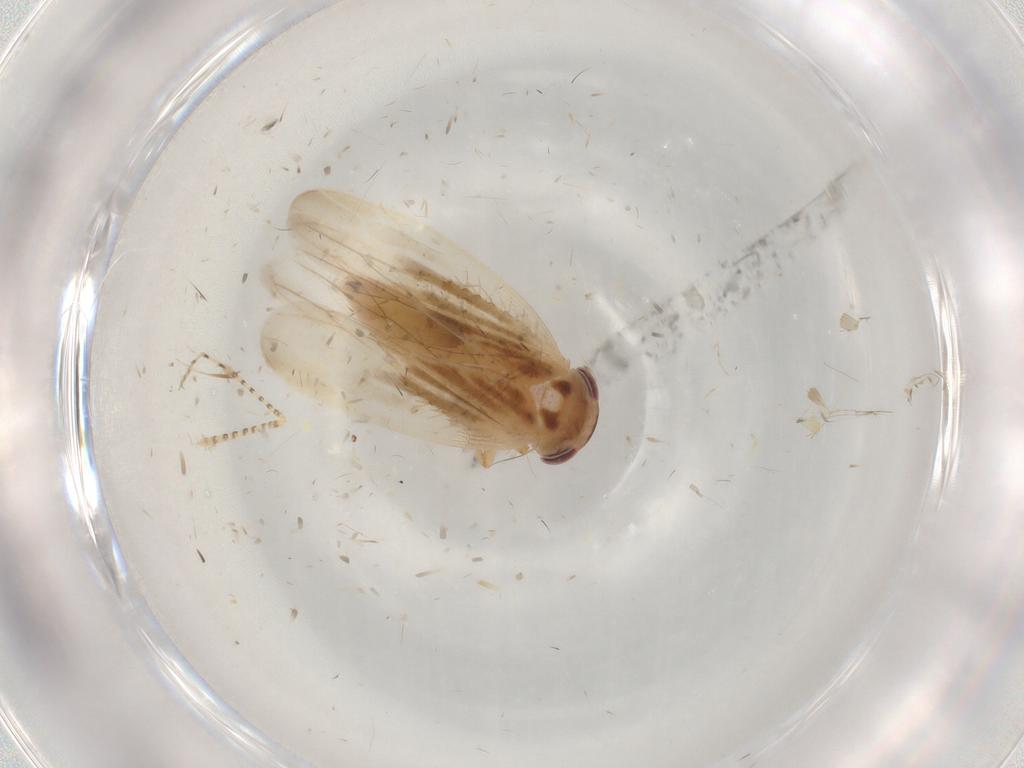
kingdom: Animalia
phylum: Arthropoda
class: Insecta
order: Hemiptera
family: Cicadellidae
